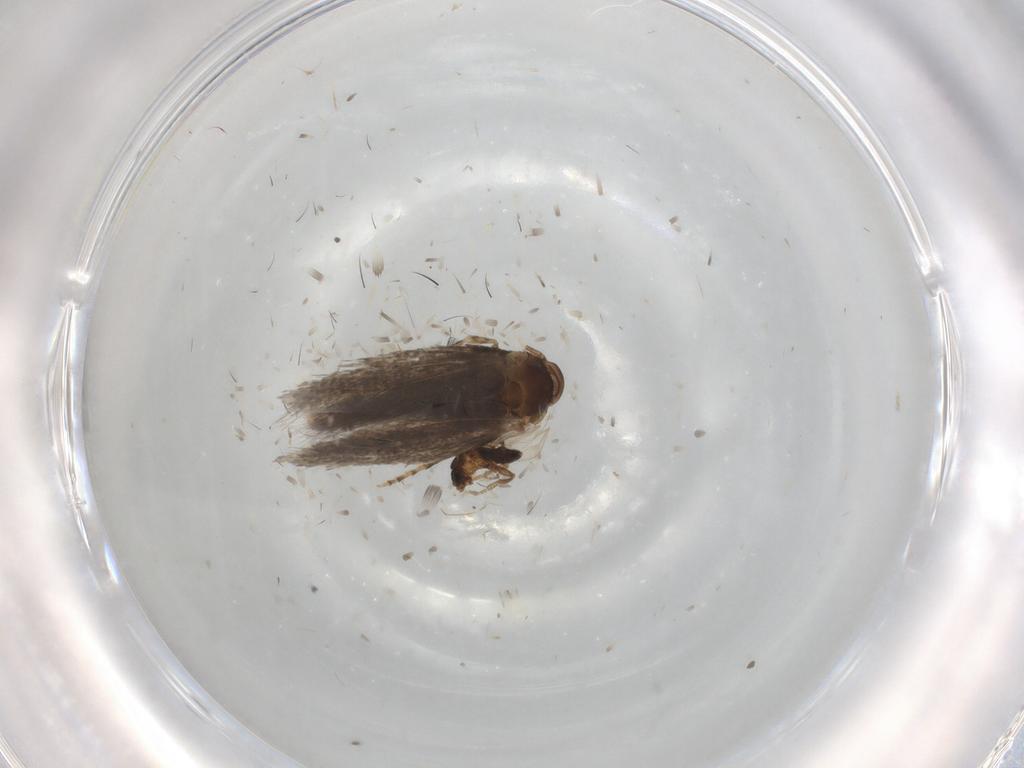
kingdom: Animalia
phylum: Arthropoda
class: Insecta
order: Lepidoptera
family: Elachistidae
